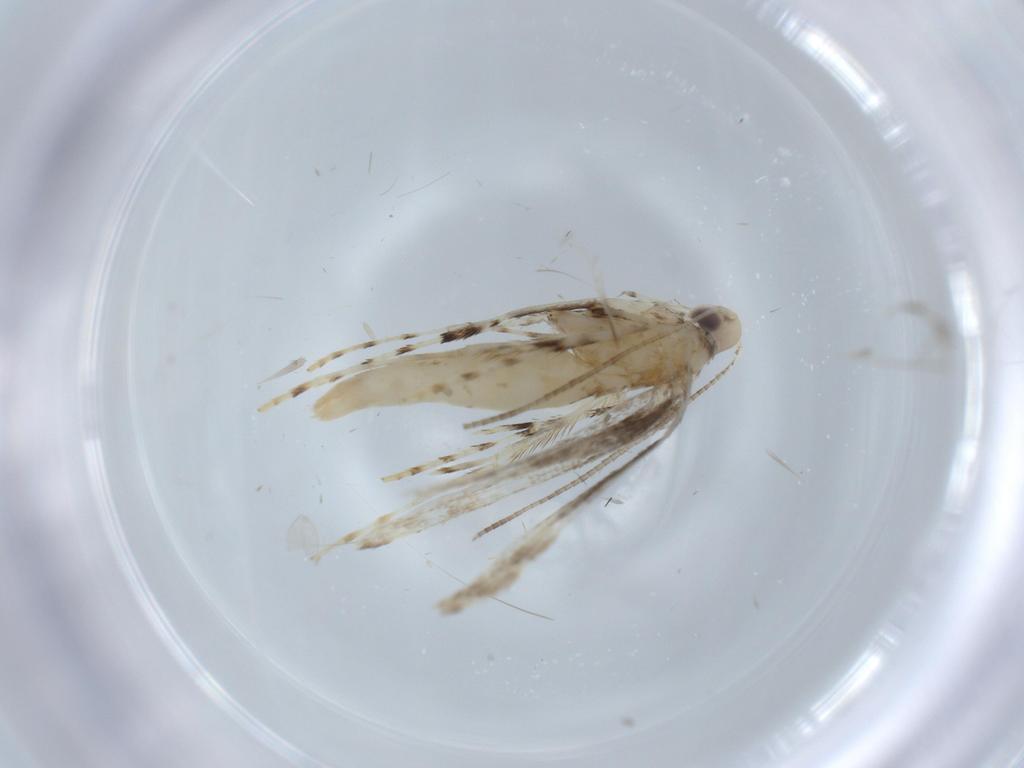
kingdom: Animalia
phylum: Arthropoda
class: Insecta
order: Lepidoptera
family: Gracillariidae
